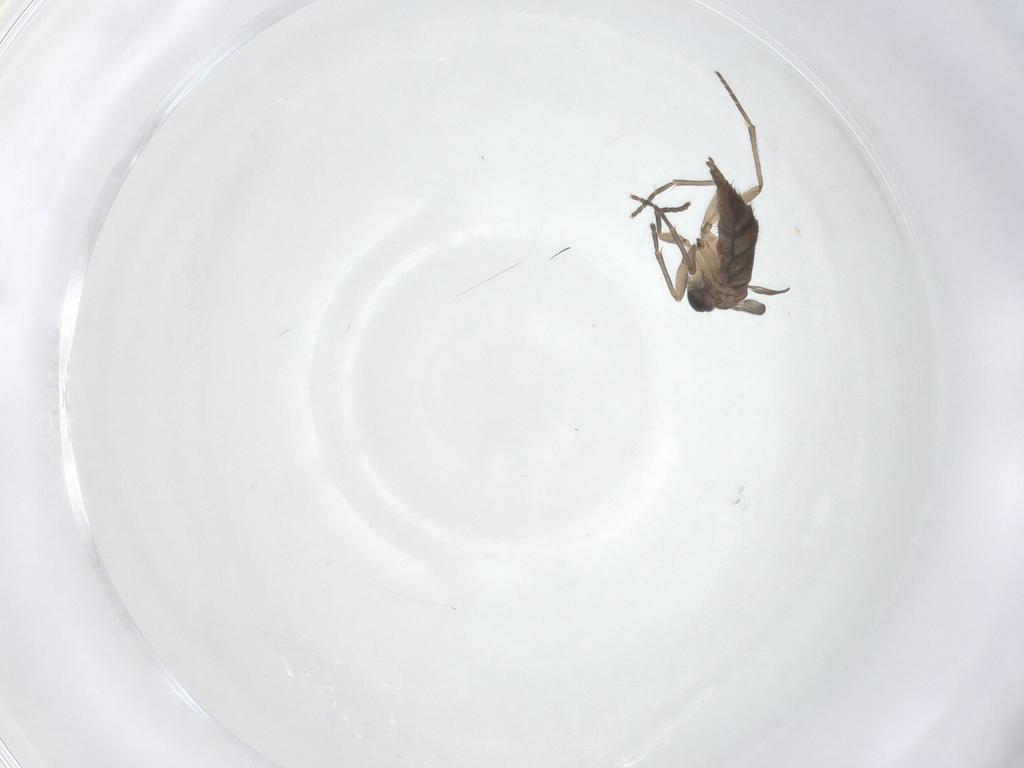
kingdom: Animalia
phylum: Arthropoda
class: Insecta
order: Diptera
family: Sciaridae
